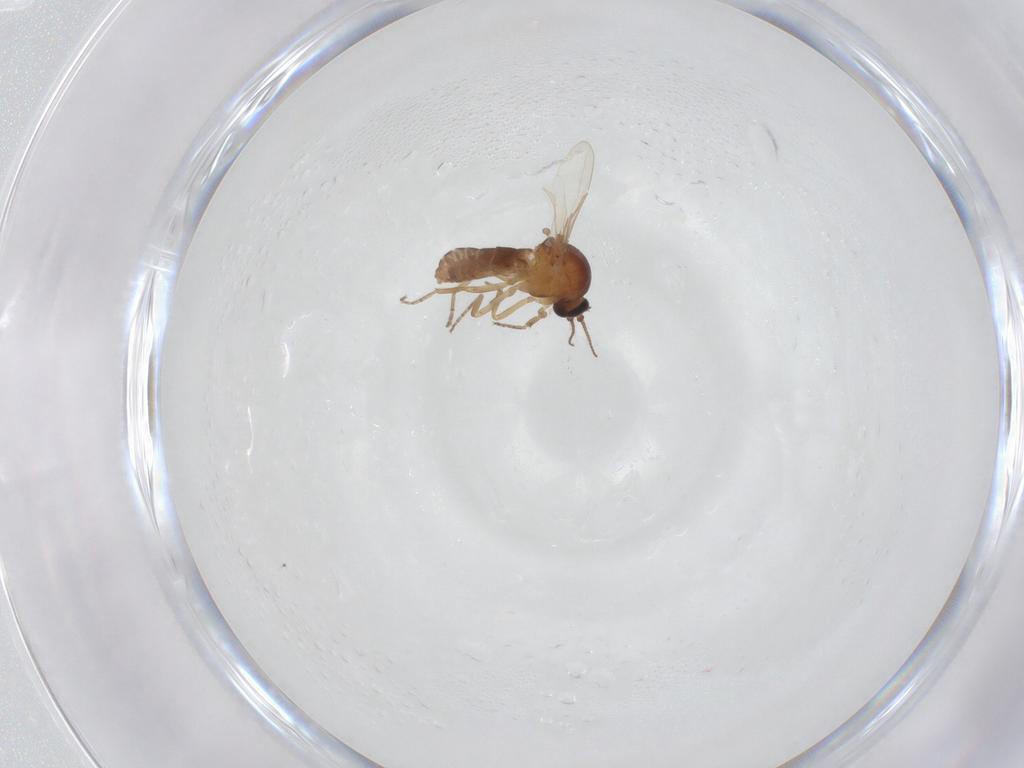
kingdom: Animalia
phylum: Arthropoda
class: Insecta
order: Diptera
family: Ceratopogonidae
